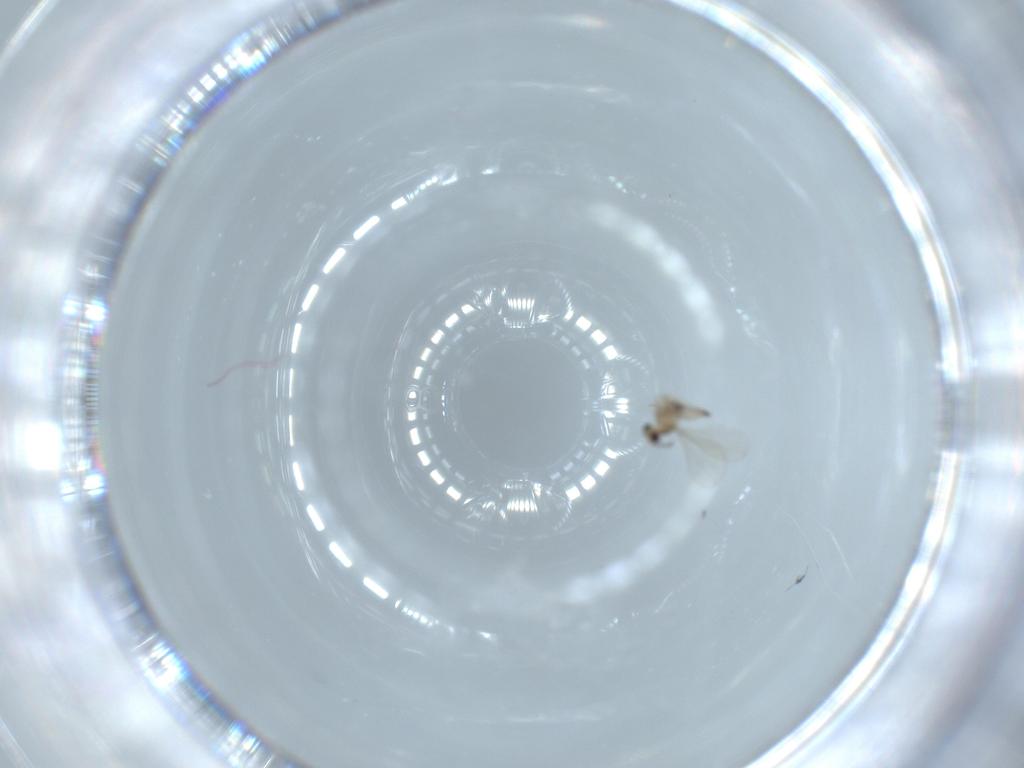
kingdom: Animalia
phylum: Arthropoda
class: Insecta
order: Diptera
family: Cecidomyiidae
